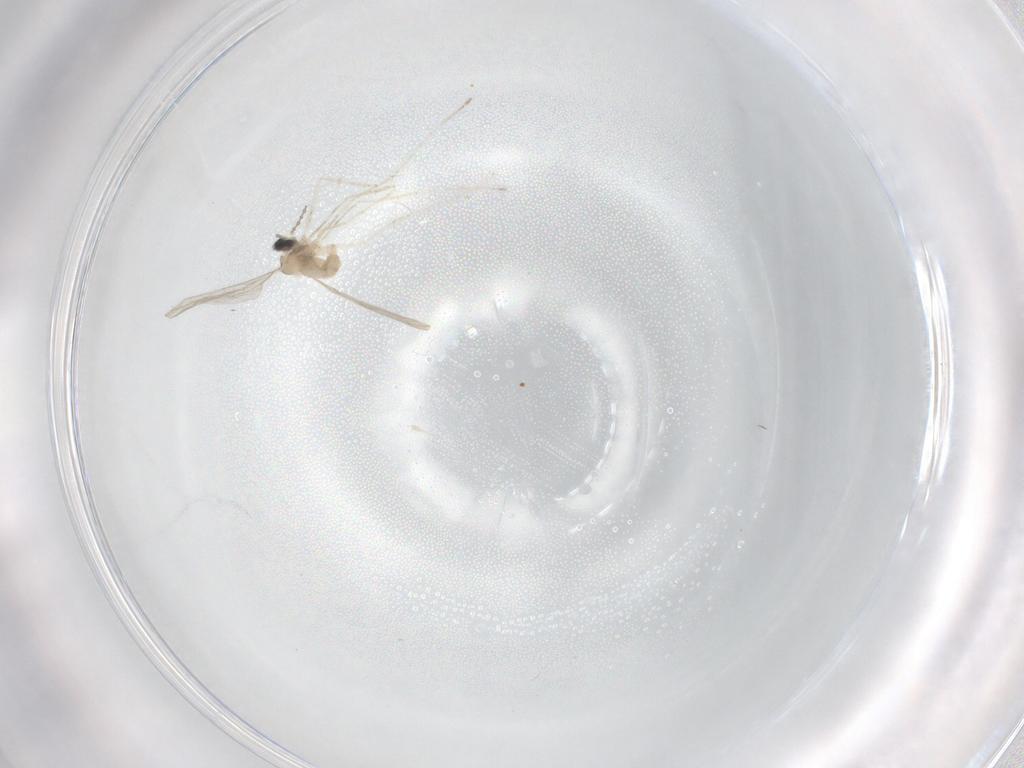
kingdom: Animalia
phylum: Arthropoda
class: Insecta
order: Diptera
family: Cecidomyiidae
